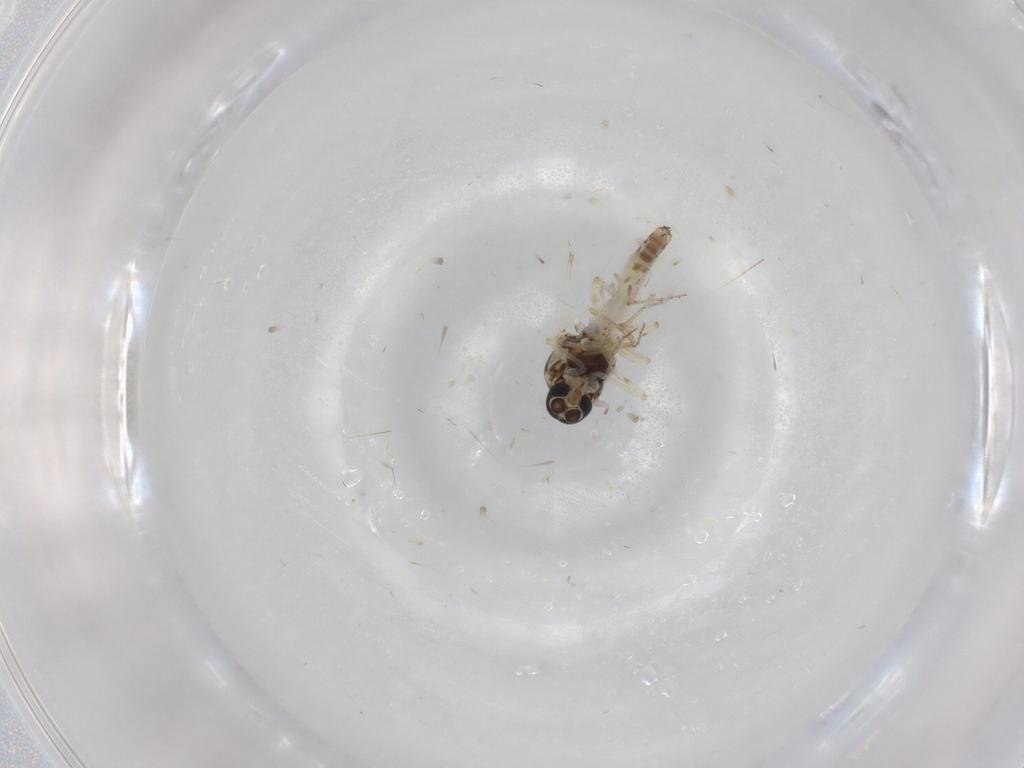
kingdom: Animalia
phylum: Arthropoda
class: Insecta
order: Diptera
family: Ceratopogonidae
